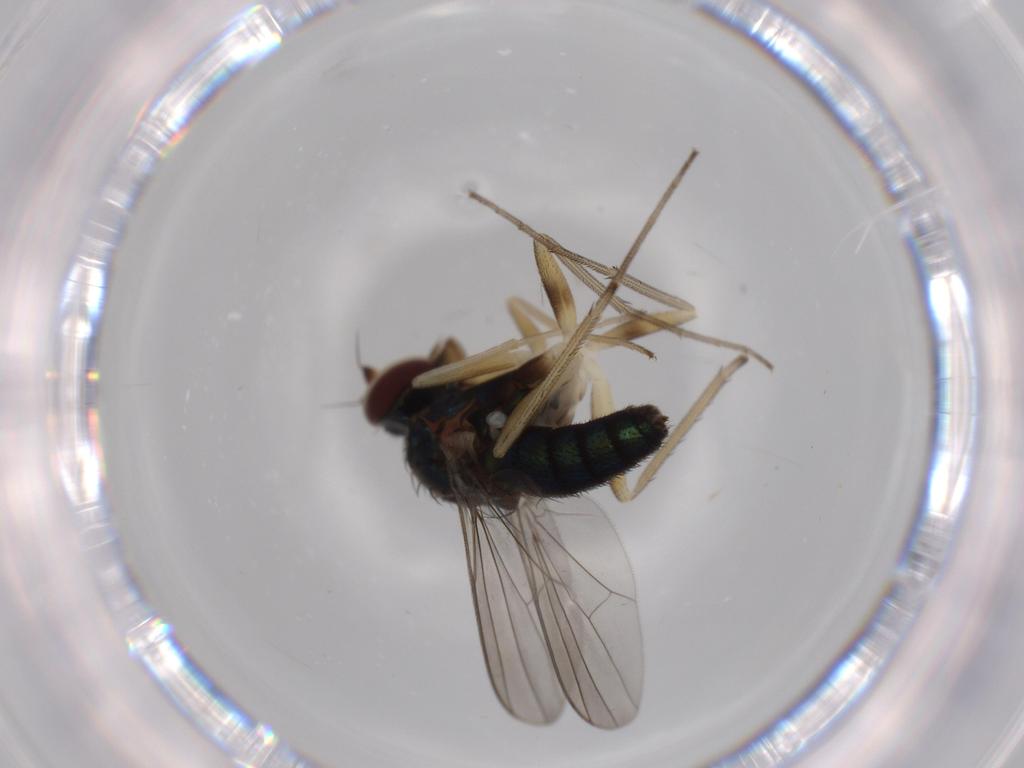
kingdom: Animalia
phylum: Arthropoda
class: Insecta
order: Diptera
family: Dolichopodidae
